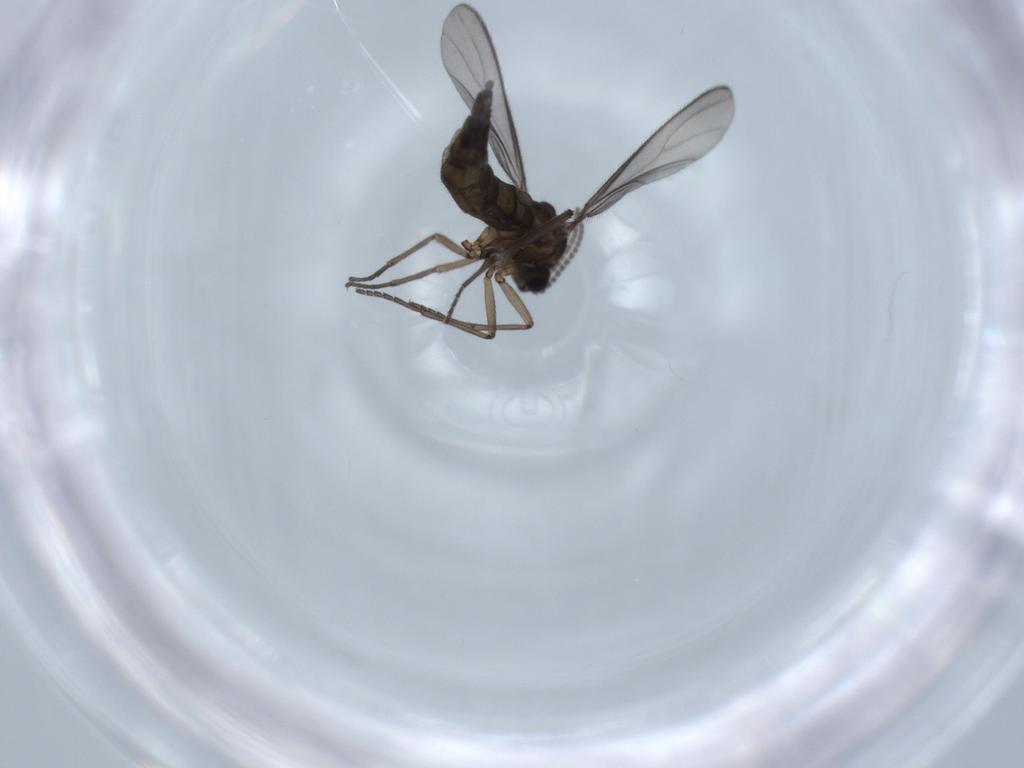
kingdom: Animalia
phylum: Arthropoda
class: Insecta
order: Diptera
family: Sciaridae
